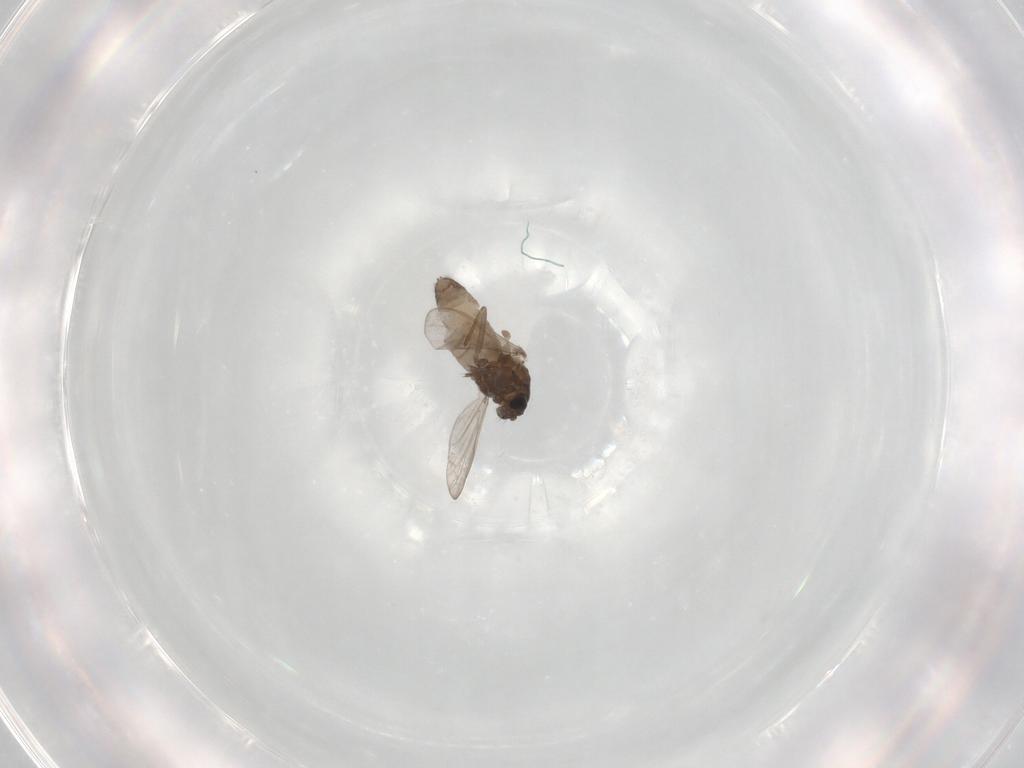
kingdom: Animalia
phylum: Arthropoda
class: Insecta
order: Diptera
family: Chironomidae
